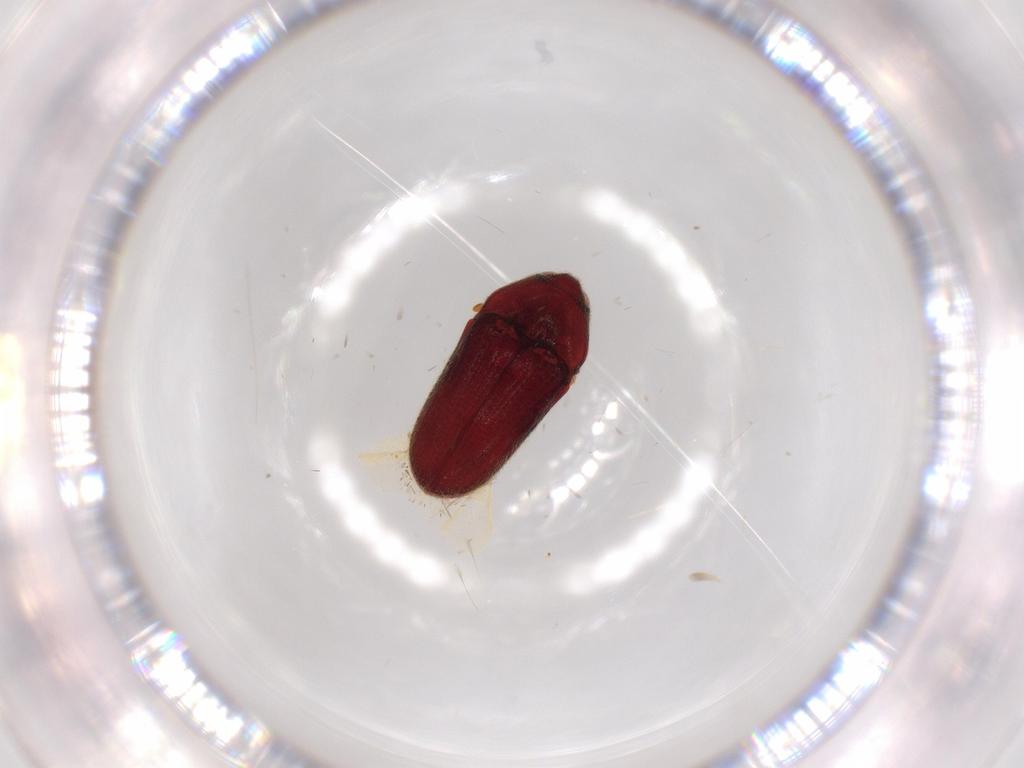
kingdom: Animalia
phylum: Arthropoda
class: Insecta
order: Coleoptera
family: Throscidae
